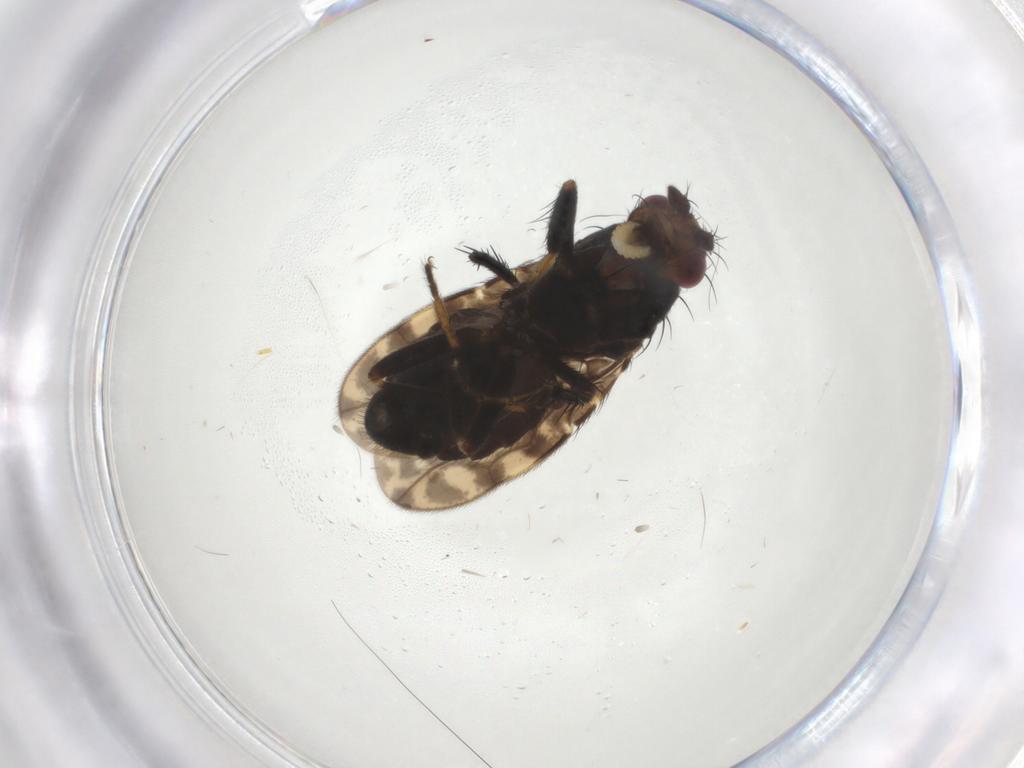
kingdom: Animalia
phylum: Arthropoda
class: Insecta
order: Diptera
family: Sphaeroceridae
